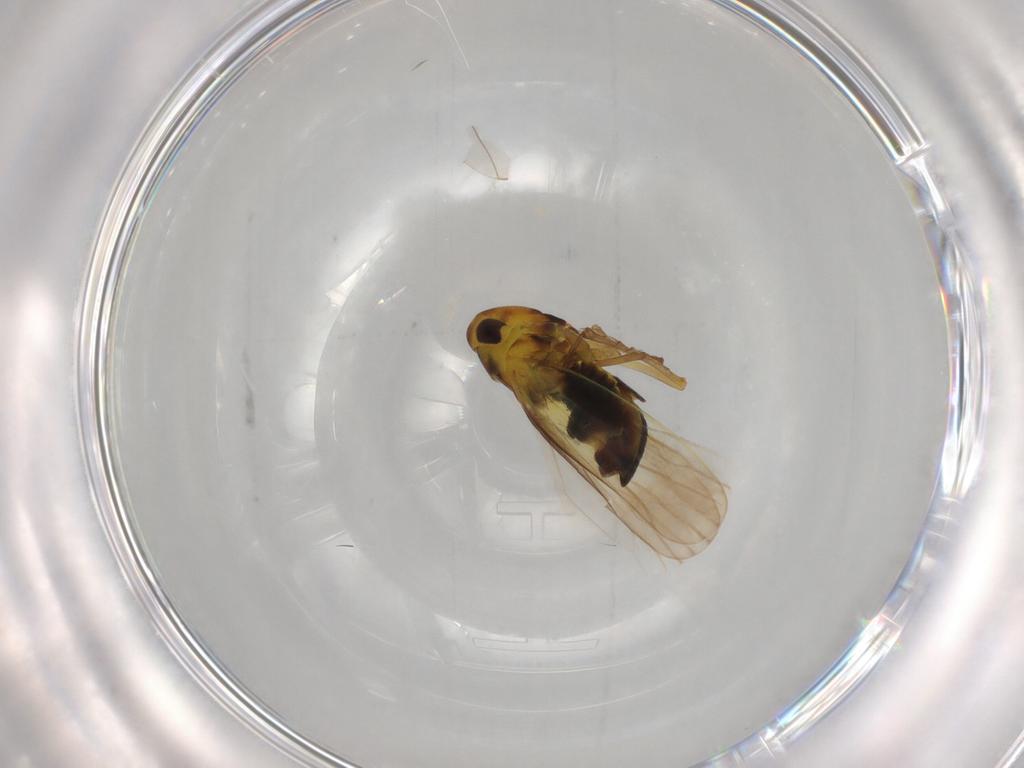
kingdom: Animalia
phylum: Arthropoda
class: Insecta
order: Hemiptera
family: Cicadellidae
